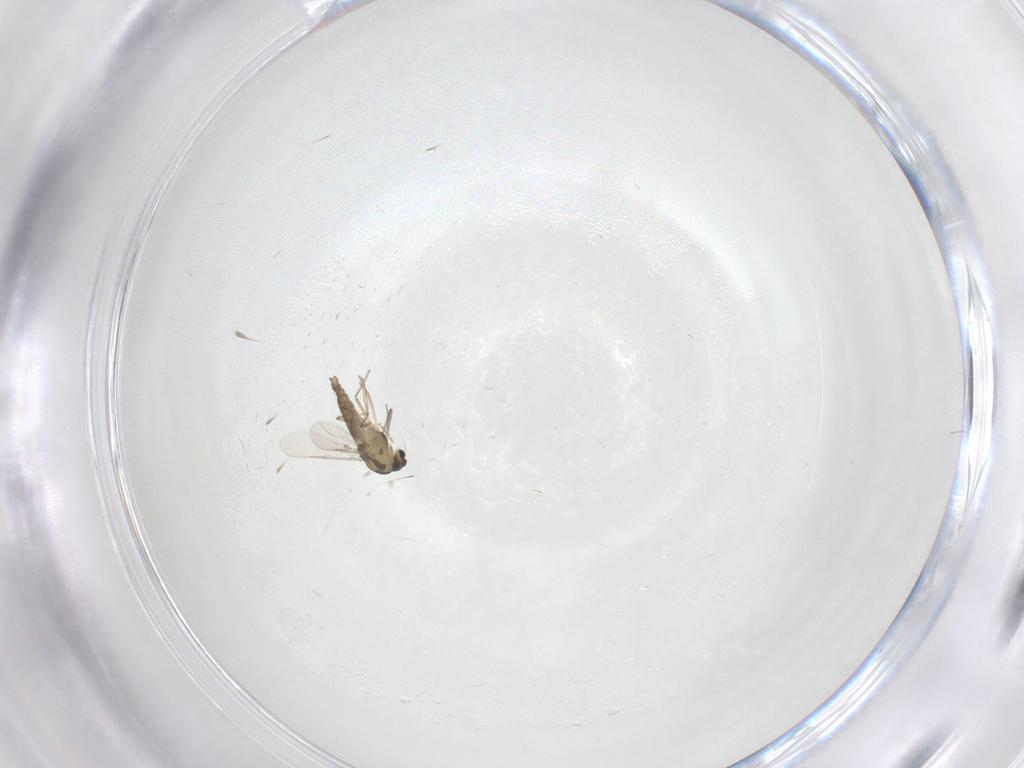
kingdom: Animalia
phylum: Arthropoda
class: Insecta
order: Diptera
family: Chironomidae
